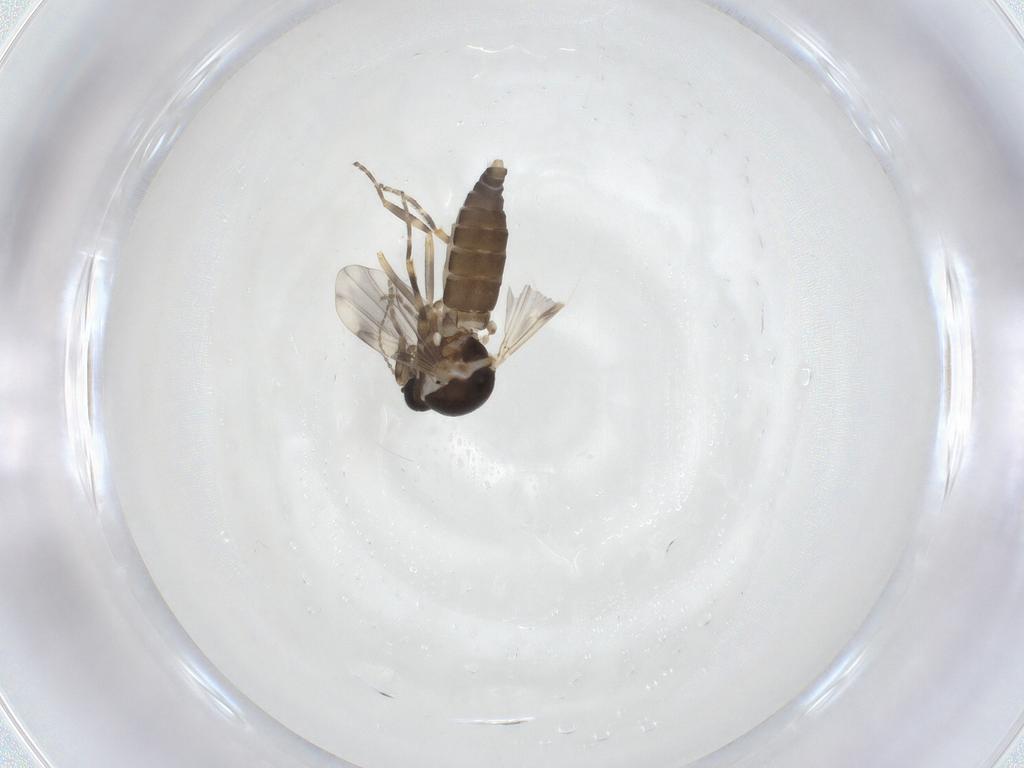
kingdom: Animalia
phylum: Arthropoda
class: Insecta
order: Diptera
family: Ceratopogonidae
